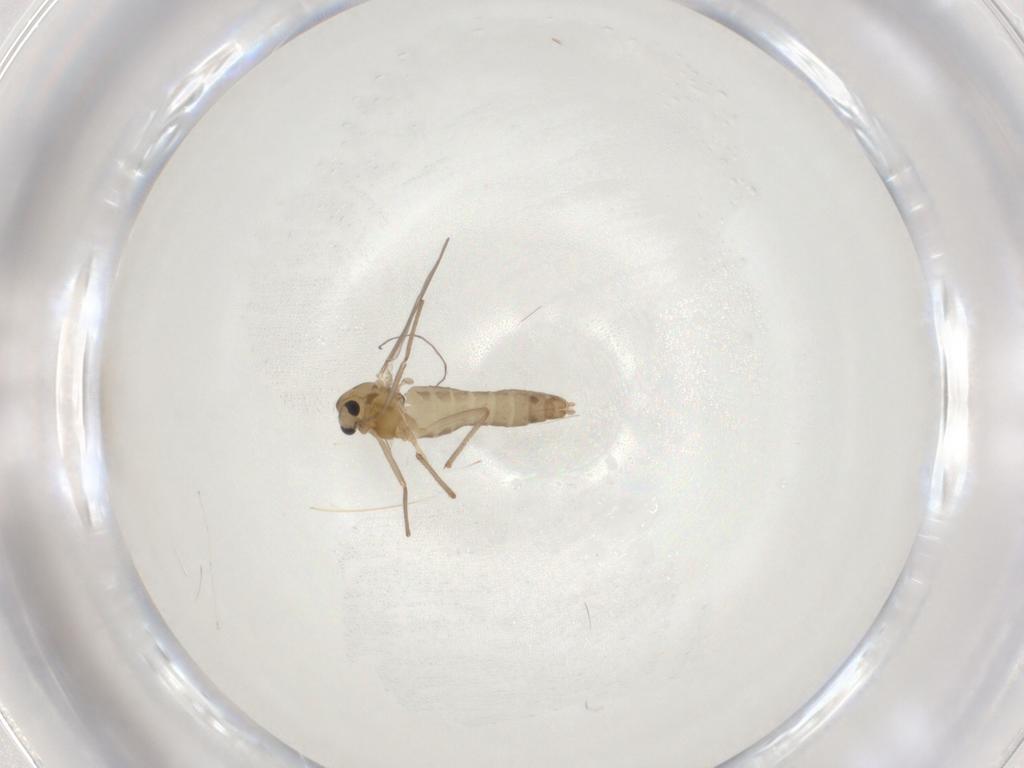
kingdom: Animalia
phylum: Arthropoda
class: Insecta
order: Diptera
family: Chironomidae
